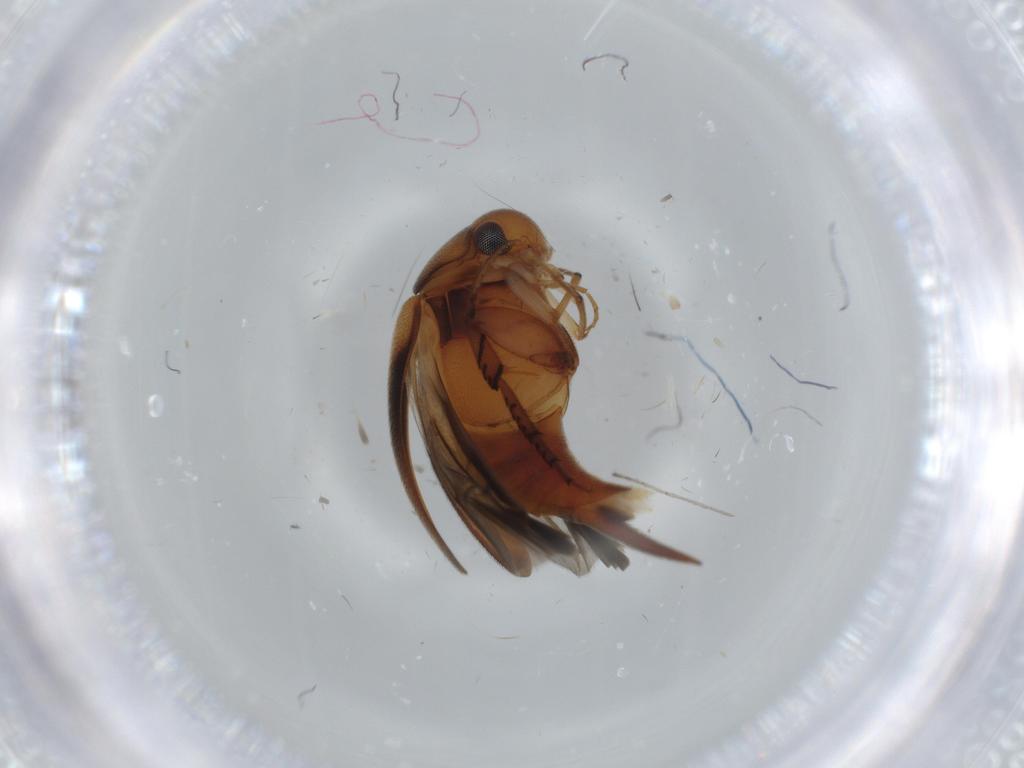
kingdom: Animalia
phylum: Arthropoda
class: Insecta
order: Coleoptera
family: Mordellidae
